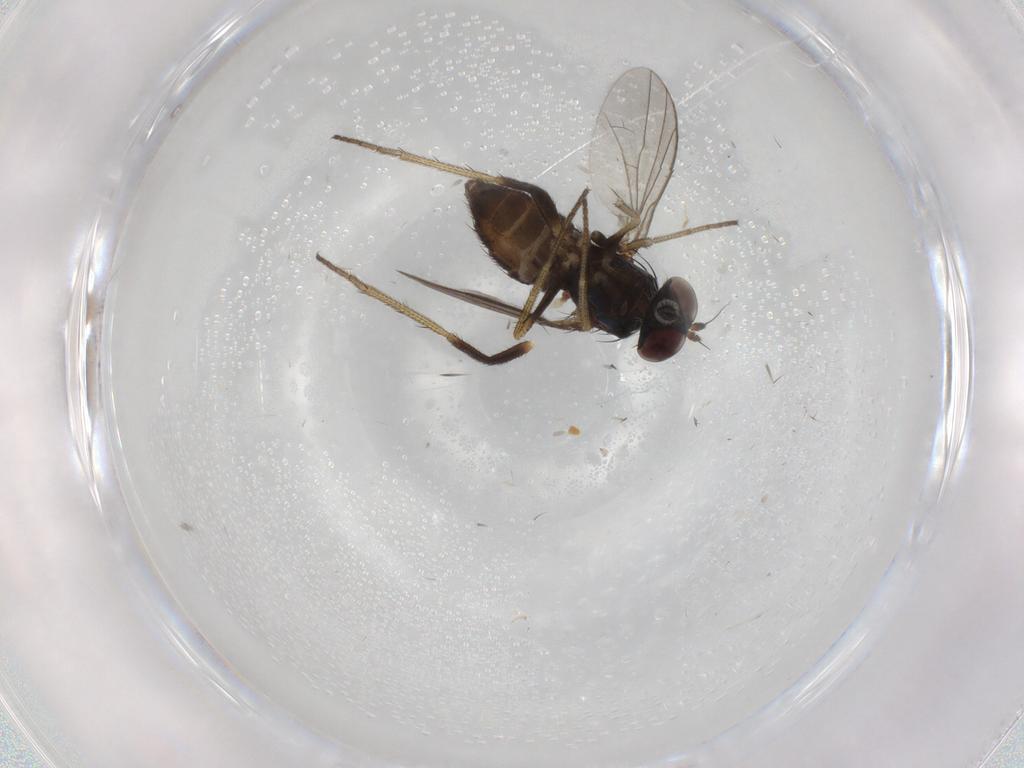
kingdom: Animalia
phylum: Arthropoda
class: Insecta
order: Diptera
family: Dolichopodidae
